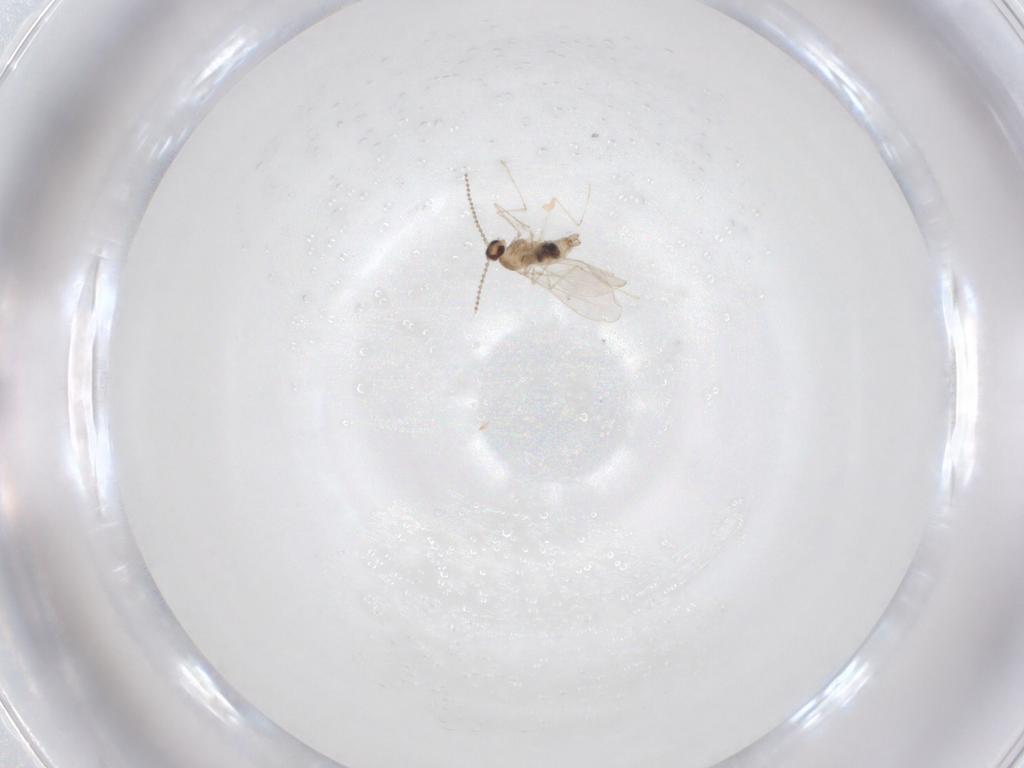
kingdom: Animalia
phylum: Arthropoda
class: Insecta
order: Diptera
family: Cecidomyiidae
